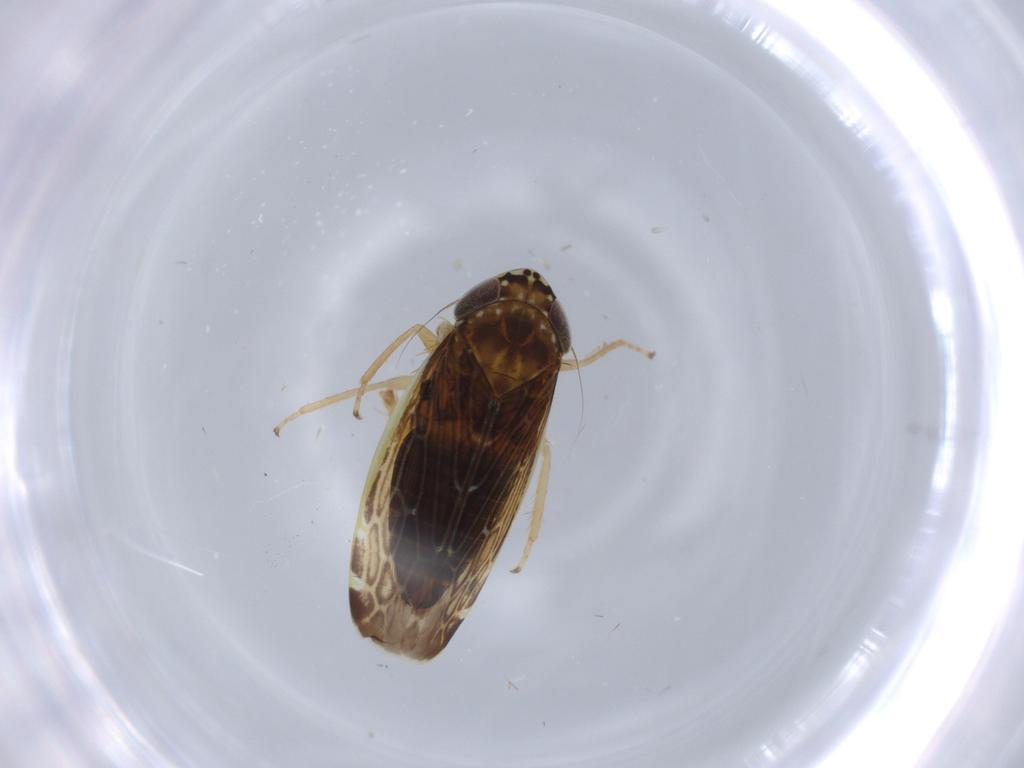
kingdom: Animalia
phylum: Arthropoda
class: Insecta
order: Hemiptera
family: Cicadellidae
